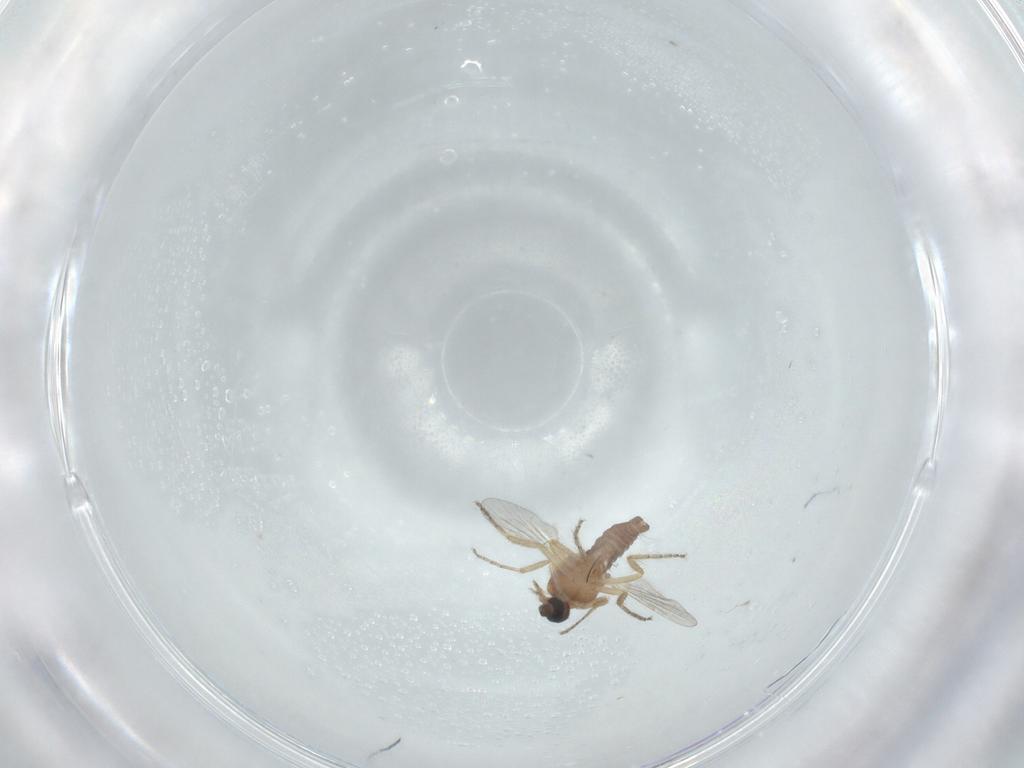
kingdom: Animalia
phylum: Arthropoda
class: Insecta
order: Diptera
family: Ceratopogonidae
